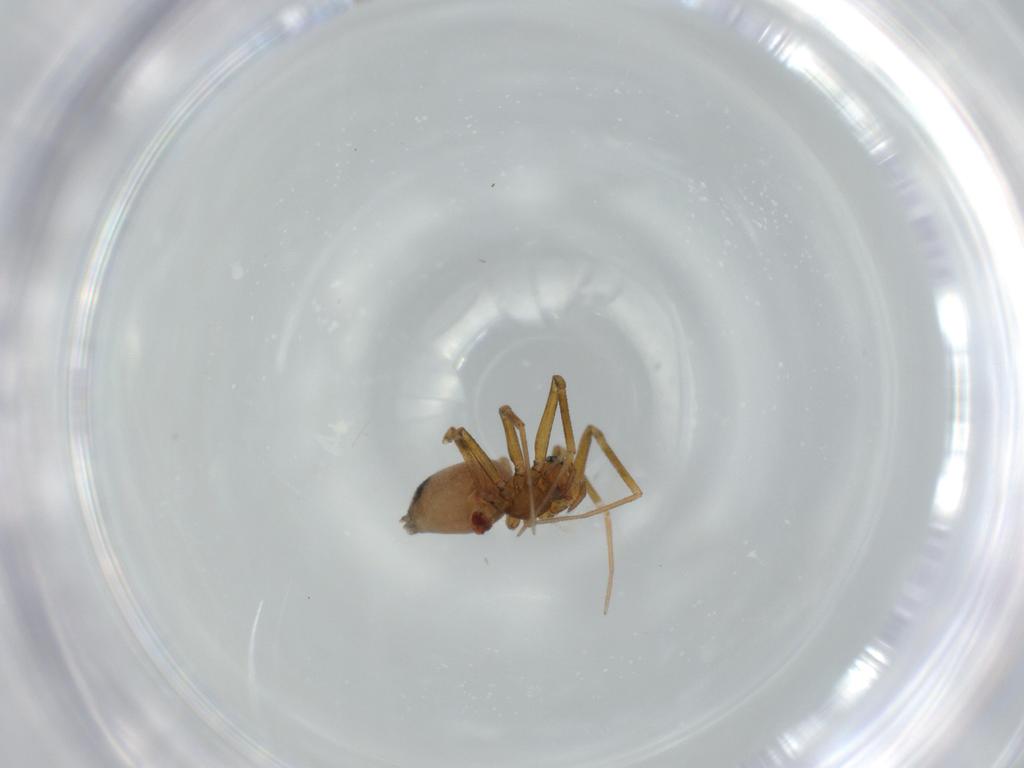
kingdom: Animalia
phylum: Arthropoda
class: Arachnida
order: Araneae
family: Linyphiidae
